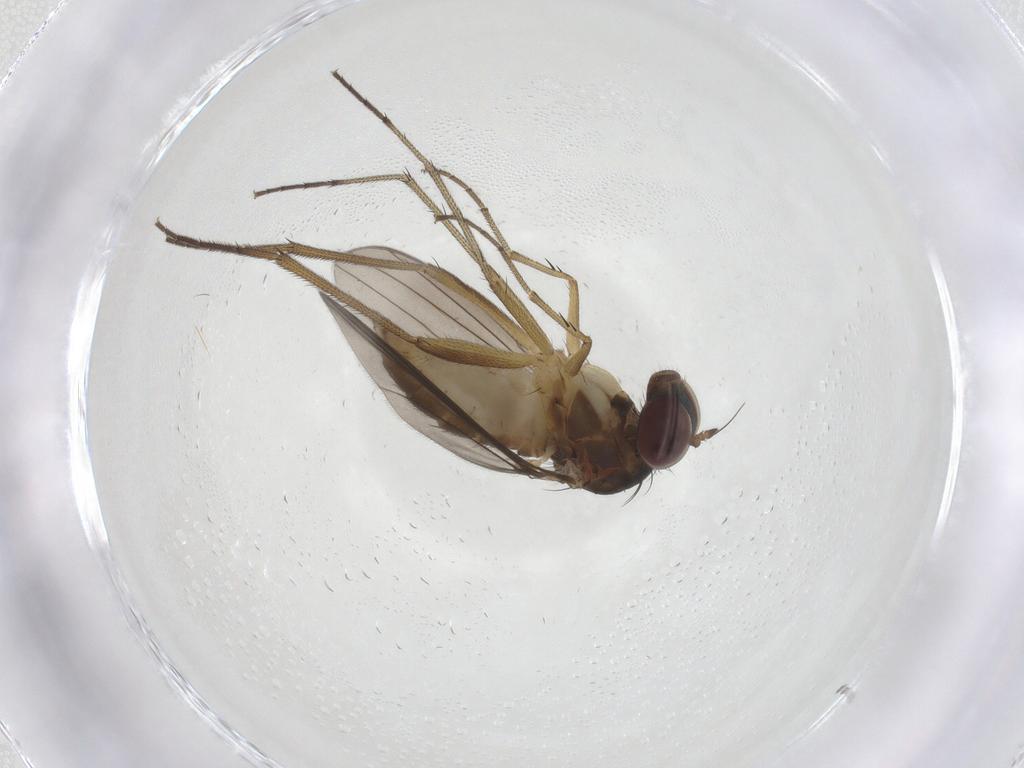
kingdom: Animalia
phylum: Arthropoda
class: Insecta
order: Diptera
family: Dolichopodidae
